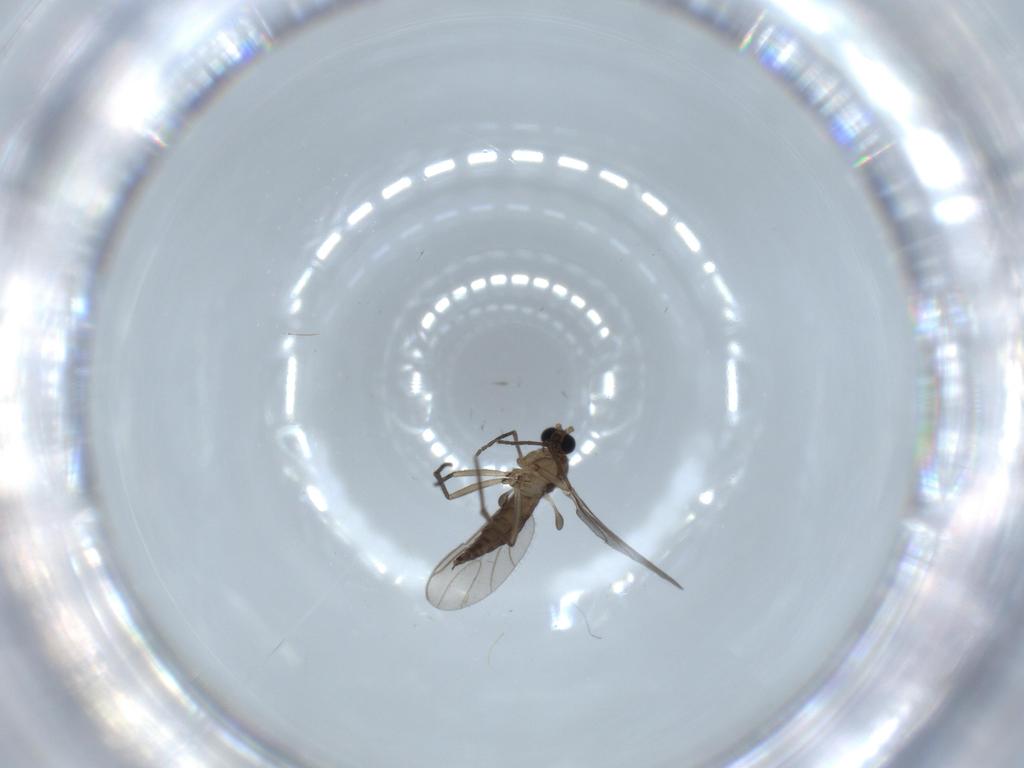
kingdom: Animalia
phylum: Arthropoda
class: Insecta
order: Diptera
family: Sciaridae
